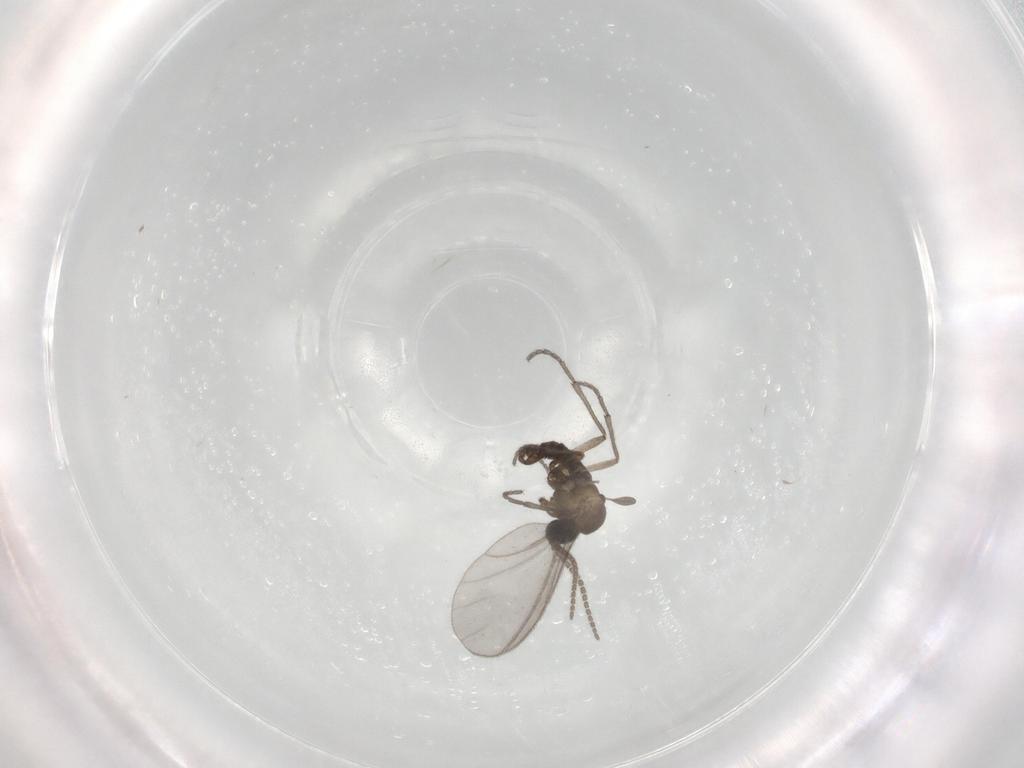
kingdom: Animalia
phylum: Arthropoda
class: Insecta
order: Diptera
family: Sciaridae
